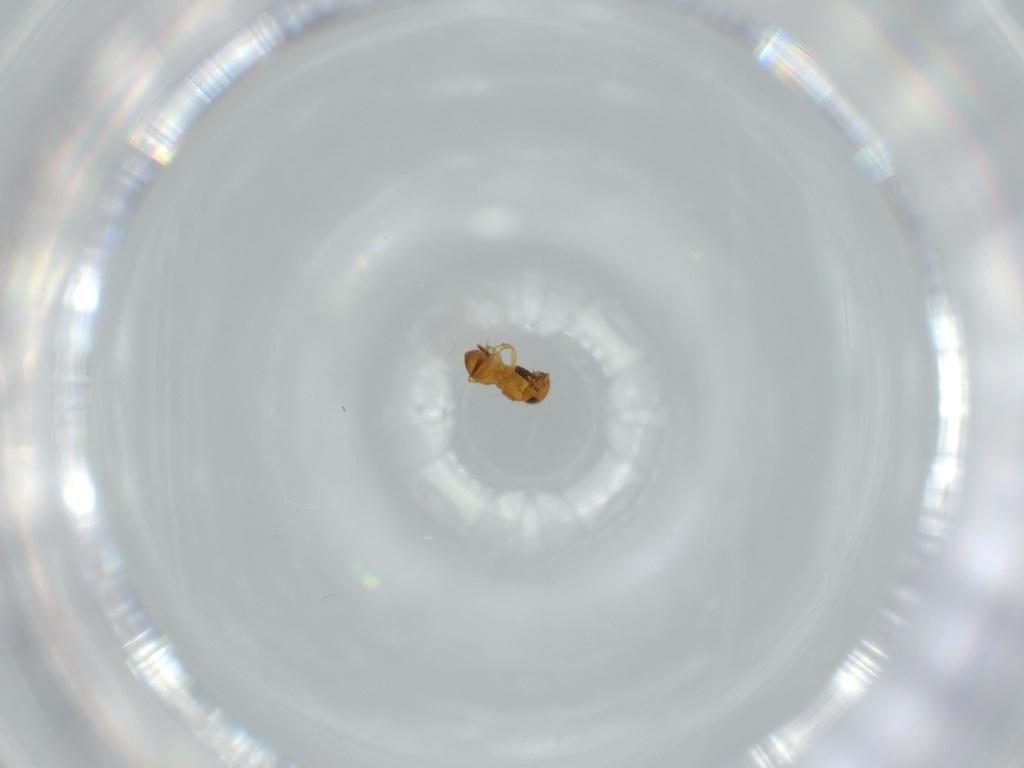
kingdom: Animalia
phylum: Arthropoda
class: Insecta
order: Hymenoptera
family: Scelionidae
